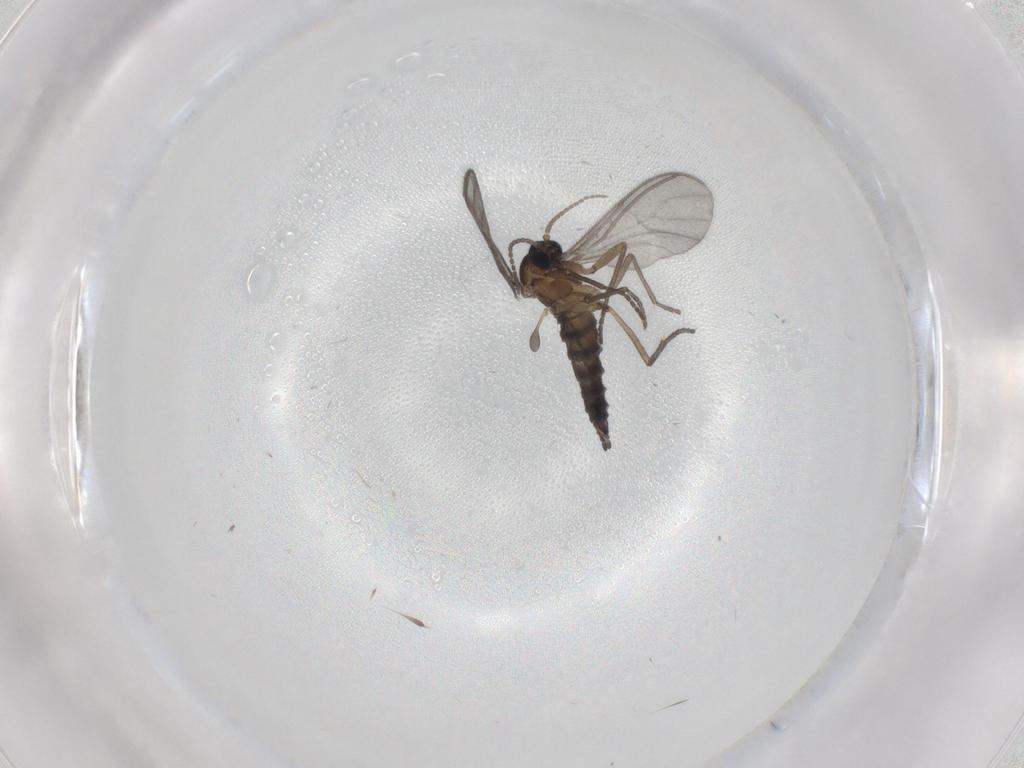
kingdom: Animalia
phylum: Arthropoda
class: Insecta
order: Diptera
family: Sciaridae
